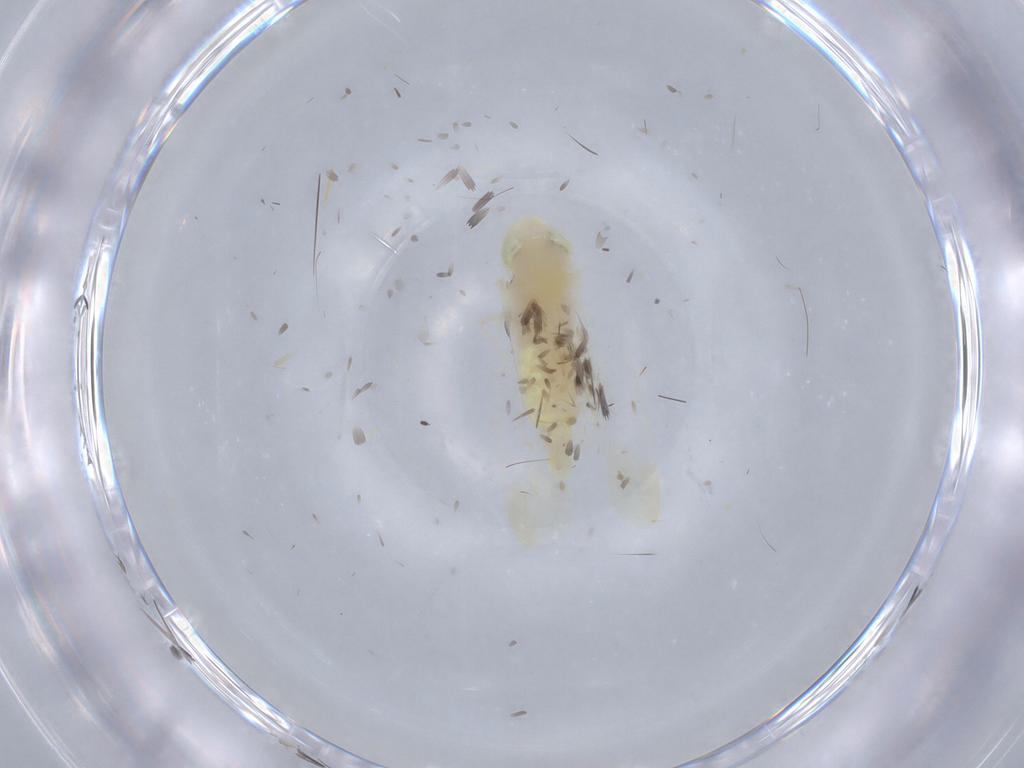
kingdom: Animalia
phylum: Arthropoda
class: Insecta
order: Hemiptera
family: Cicadellidae
